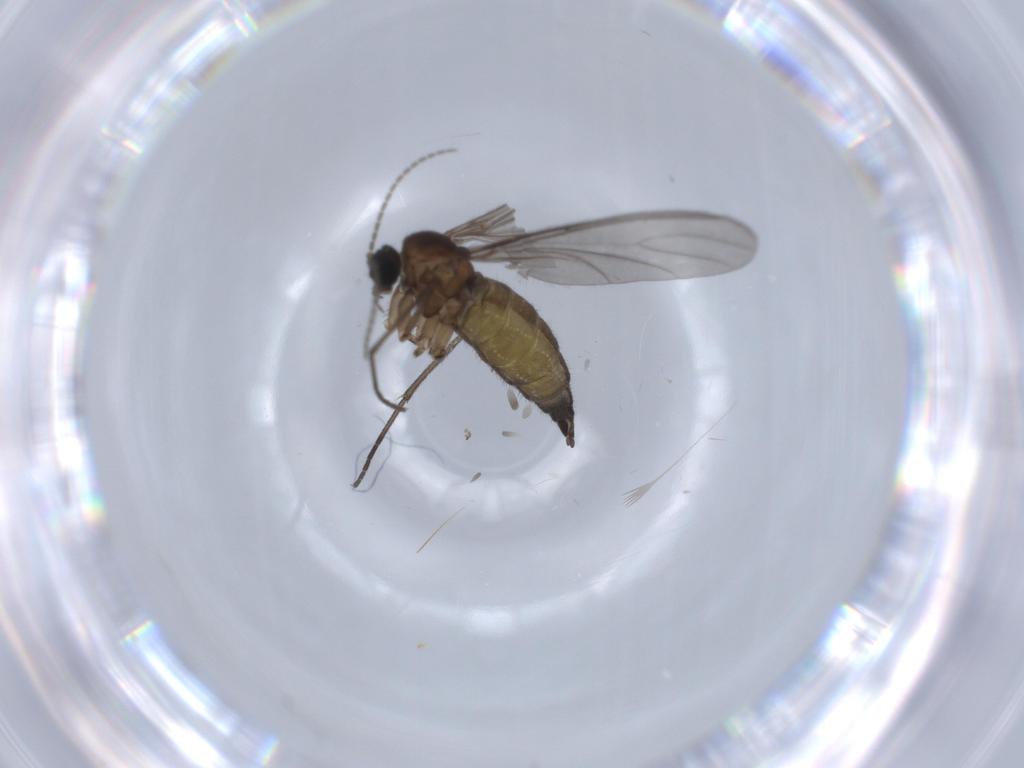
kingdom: Animalia
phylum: Arthropoda
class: Insecta
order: Diptera
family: Sciaridae
